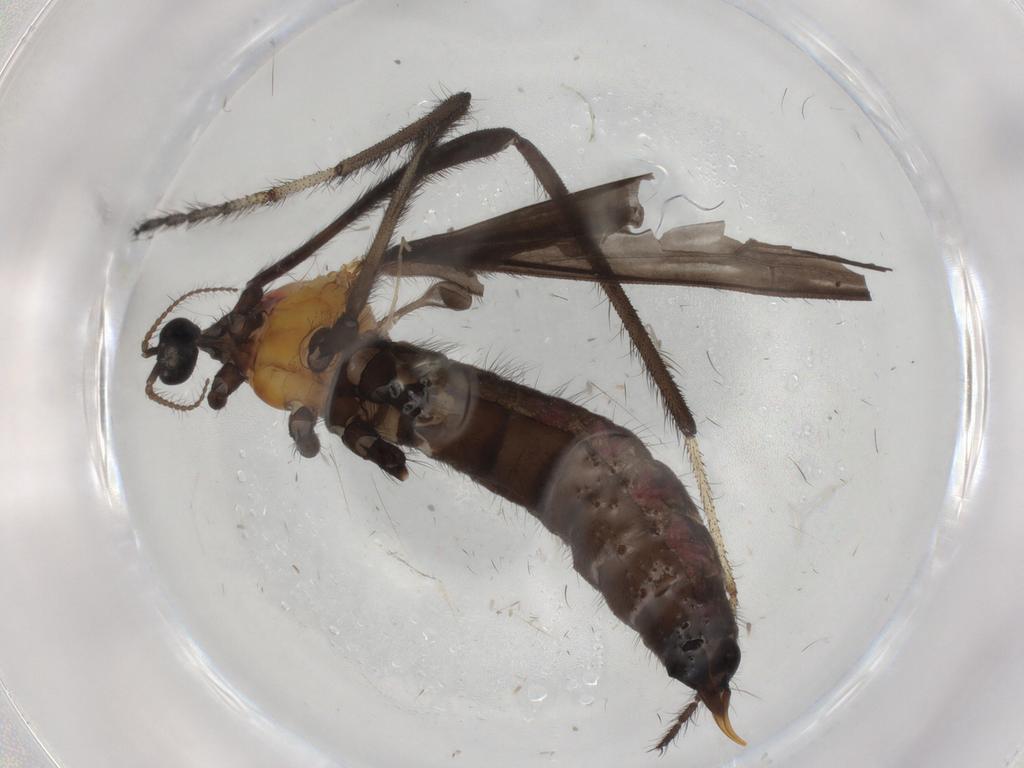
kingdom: Animalia
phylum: Arthropoda
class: Insecta
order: Diptera
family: Limoniidae
